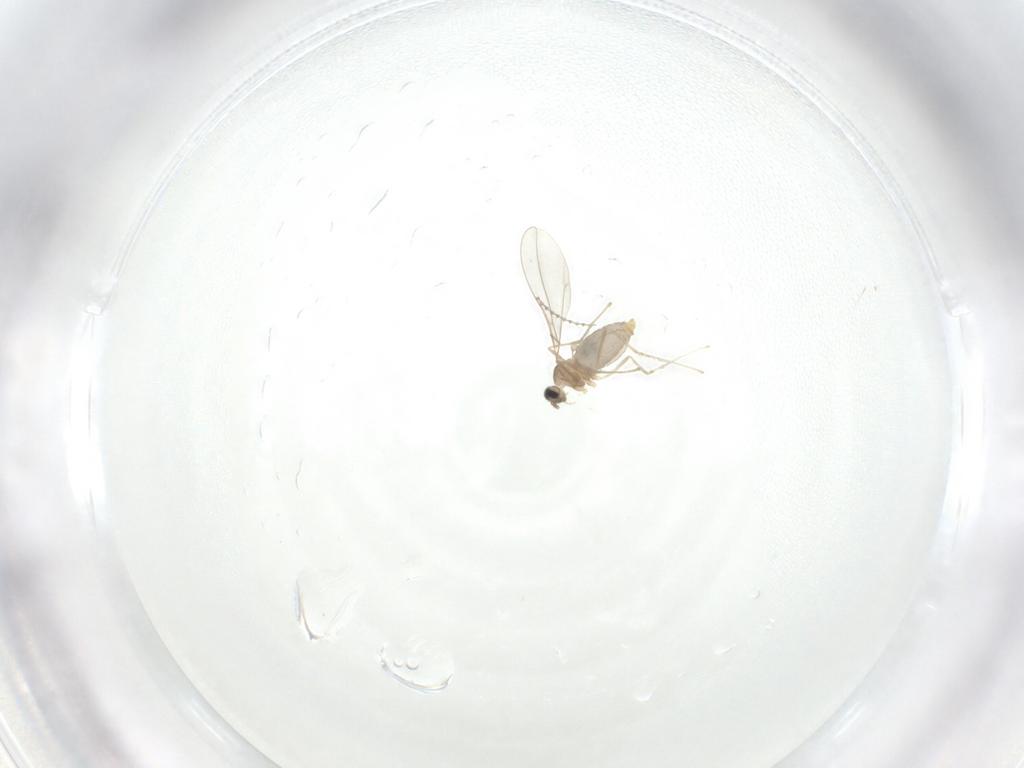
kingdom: Animalia
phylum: Arthropoda
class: Insecta
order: Diptera
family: Cecidomyiidae
